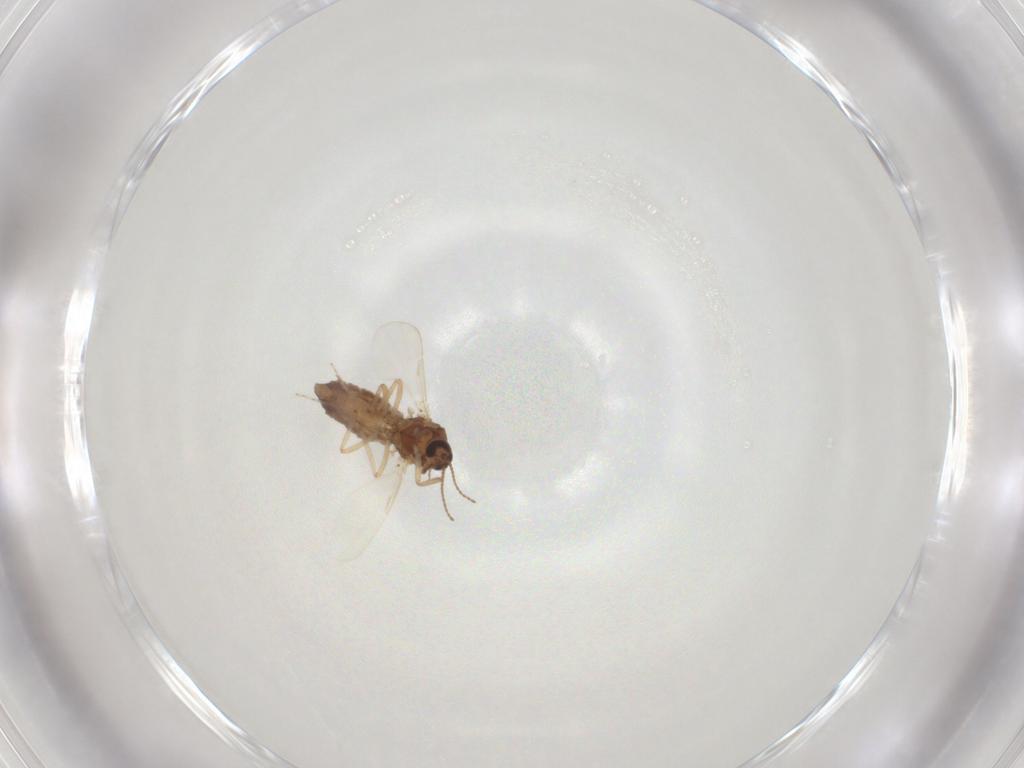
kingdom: Animalia
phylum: Arthropoda
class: Insecta
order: Diptera
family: Ceratopogonidae
